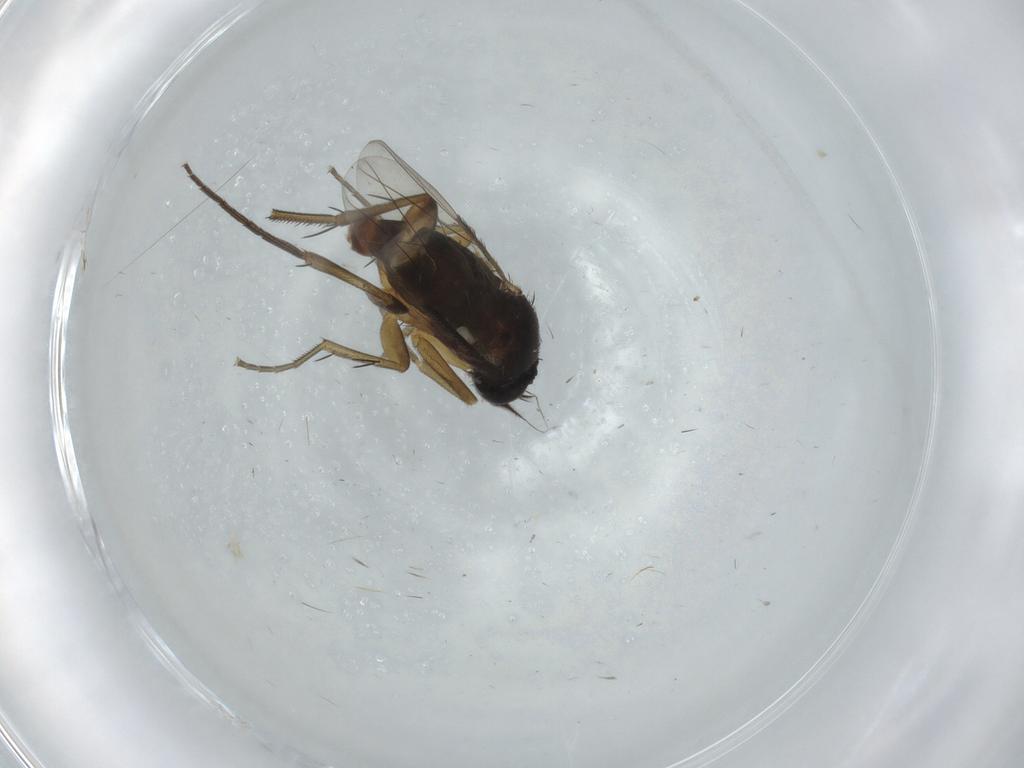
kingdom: Animalia
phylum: Arthropoda
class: Insecta
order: Diptera
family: Phoridae
